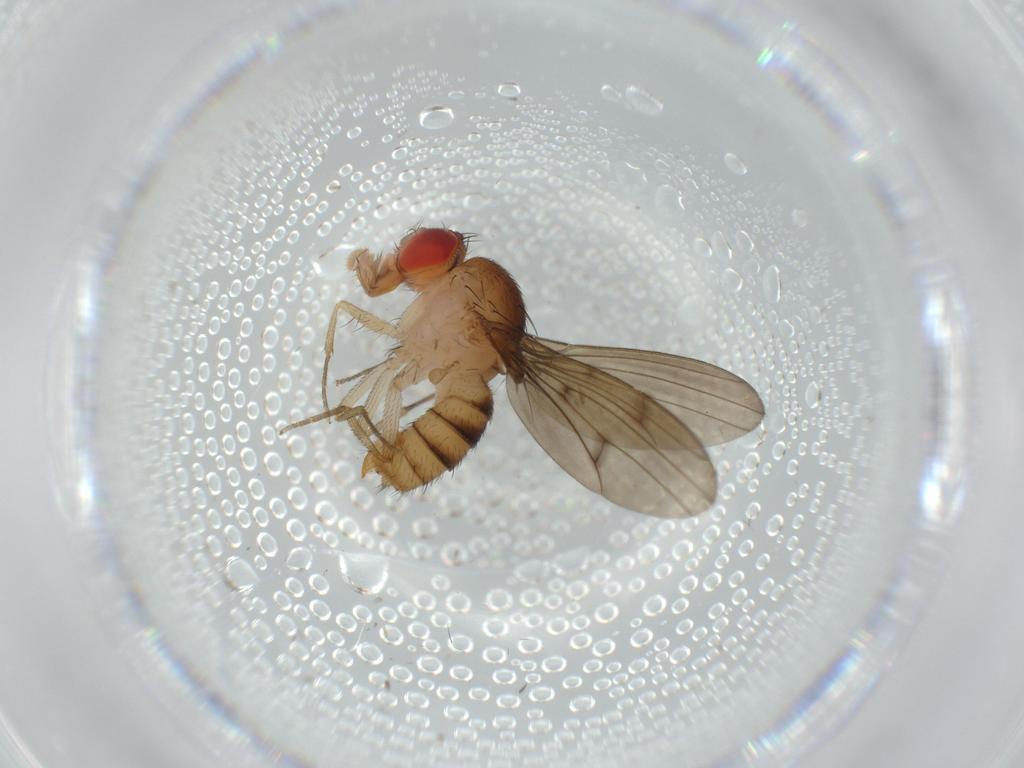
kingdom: Animalia
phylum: Arthropoda
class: Insecta
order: Diptera
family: Drosophilidae
